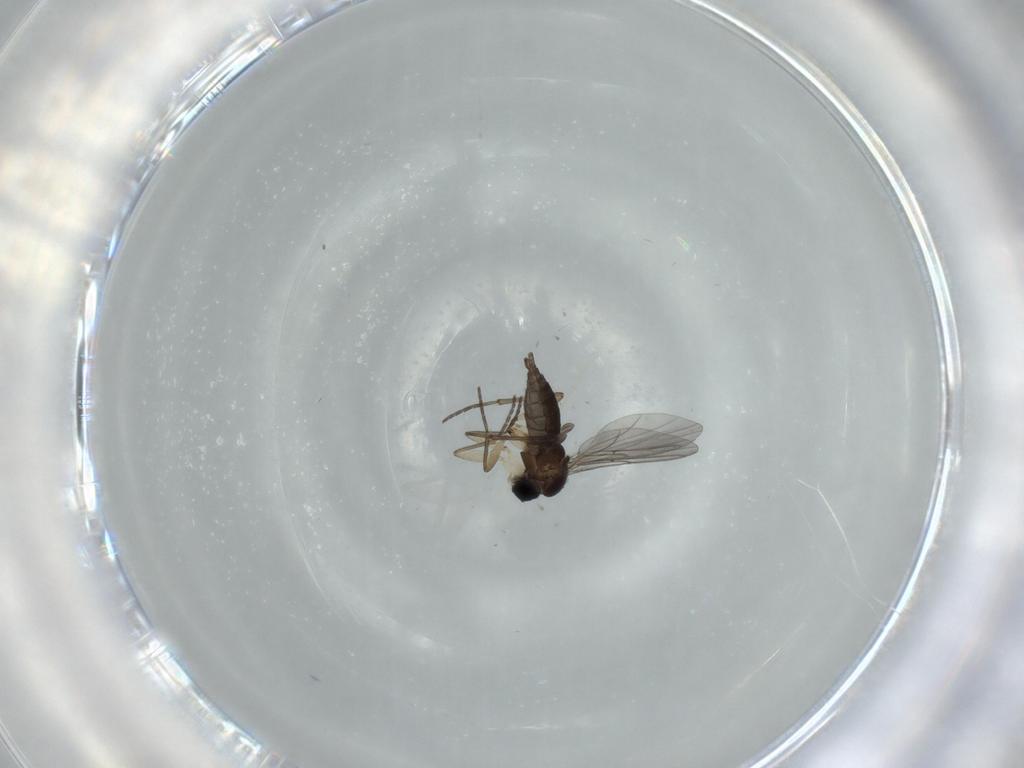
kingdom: Animalia
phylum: Arthropoda
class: Insecta
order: Diptera
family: Sciaridae
